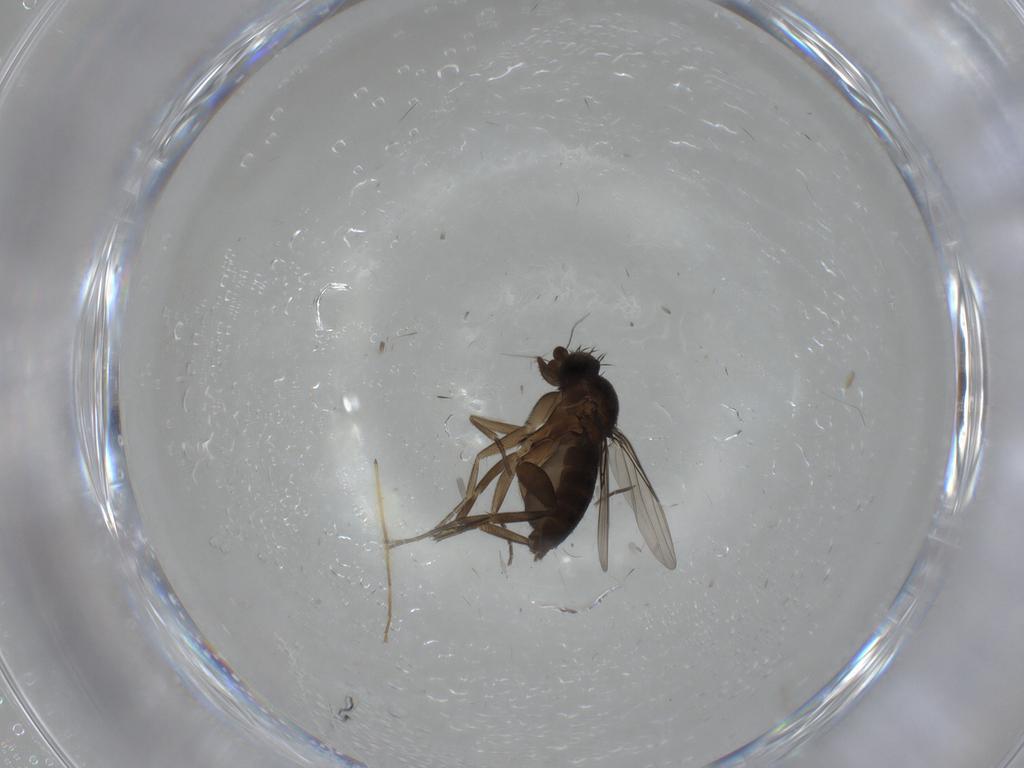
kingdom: Animalia
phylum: Arthropoda
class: Insecta
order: Diptera
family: Phoridae
